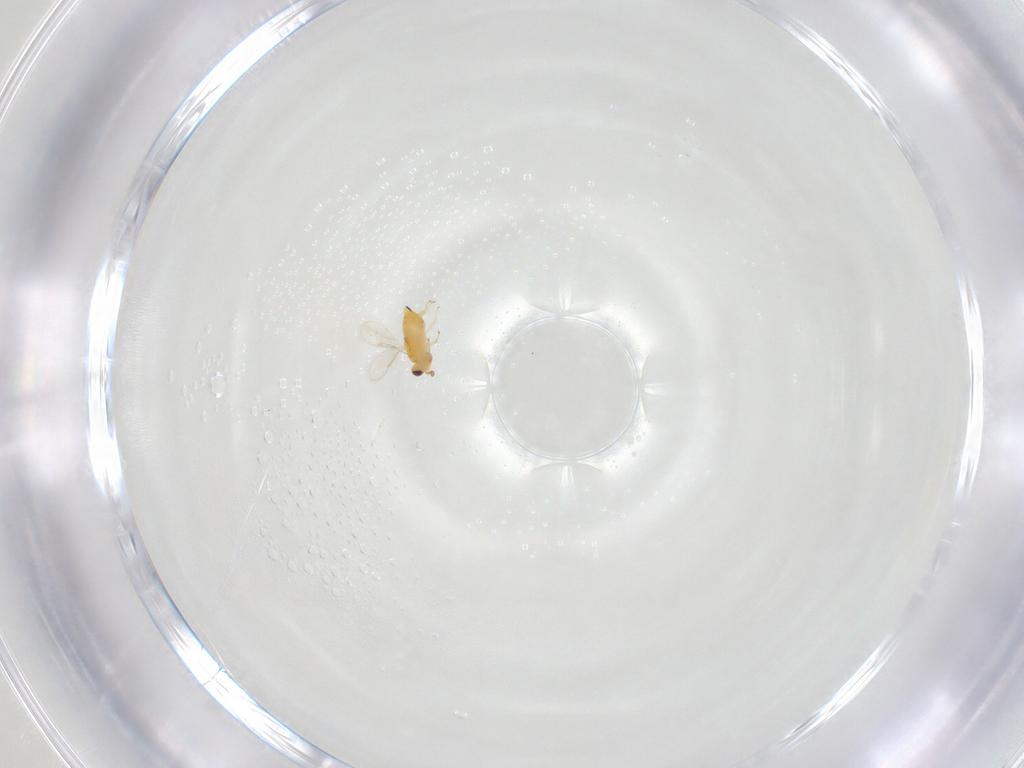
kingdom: Animalia
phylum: Arthropoda
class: Insecta
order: Hymenoptera
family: Aphelinidae
